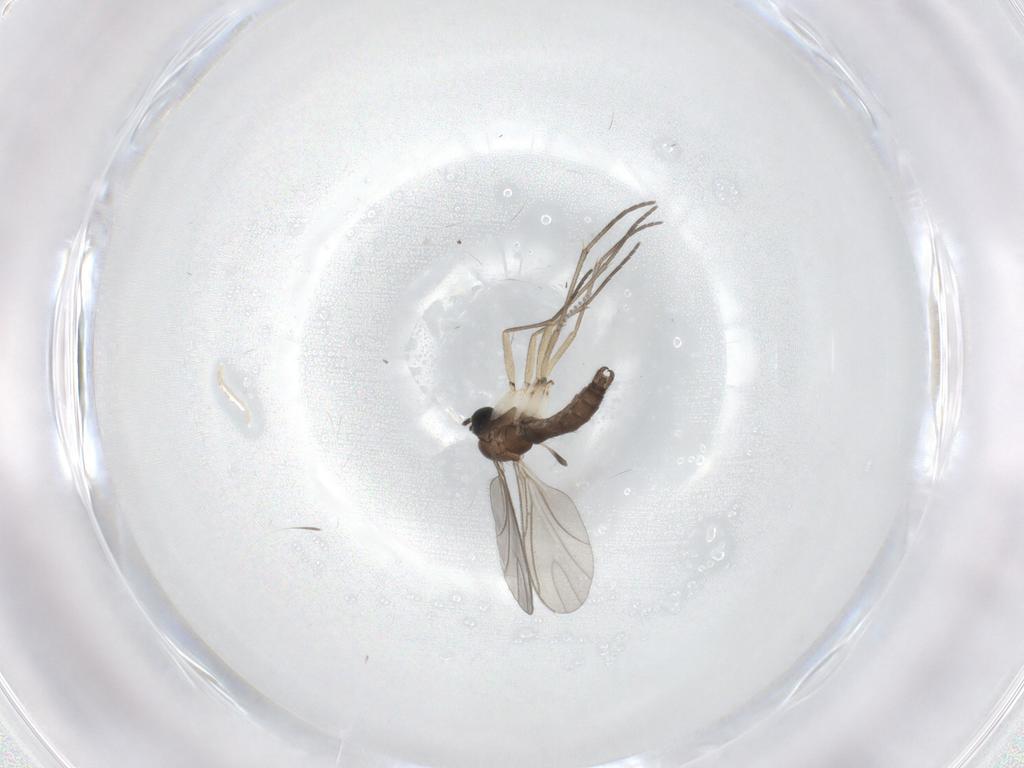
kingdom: Animalia
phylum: Arthropoda
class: Insecta
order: Diptera
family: Sciaridae
